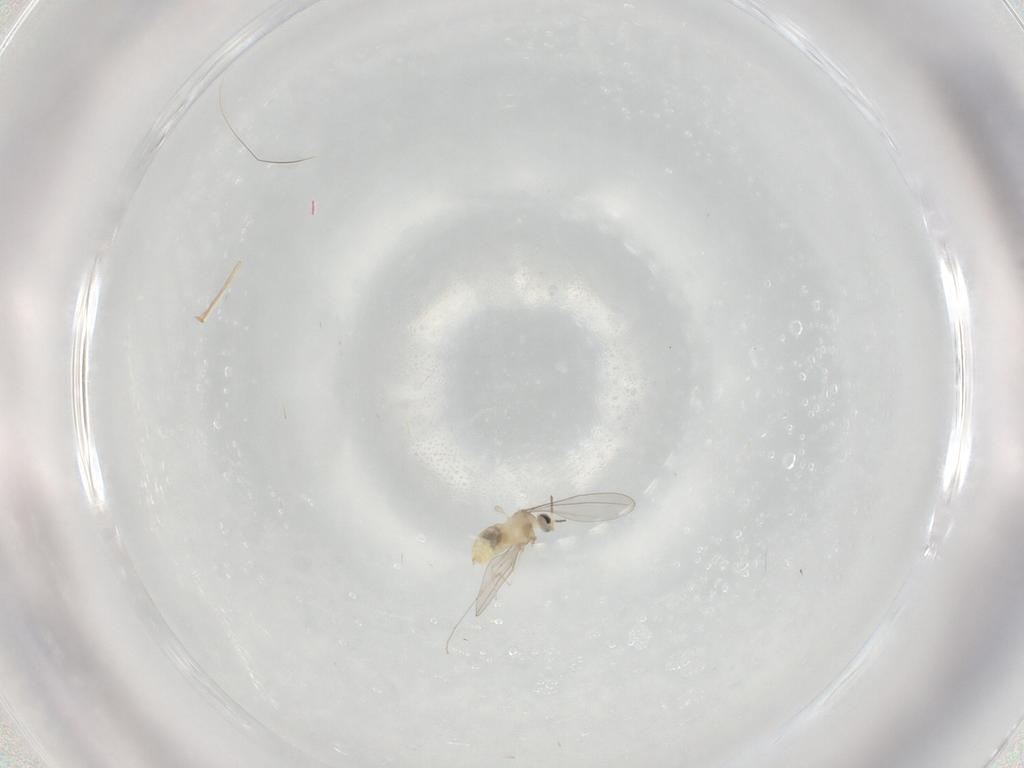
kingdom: Animalia
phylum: Arthropoda
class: Insecta
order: Diptera
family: Cecidomyiidae
